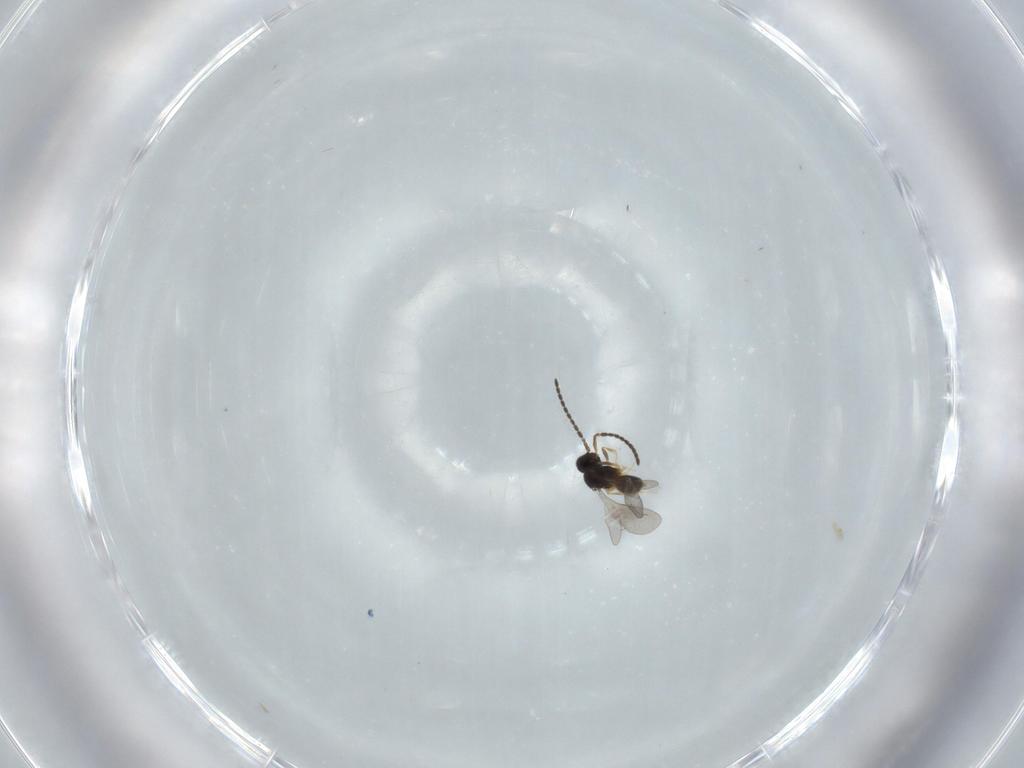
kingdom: Animalia
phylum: Arthropoda
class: Insecta
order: Hymenoptera
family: Ceraphronidae
